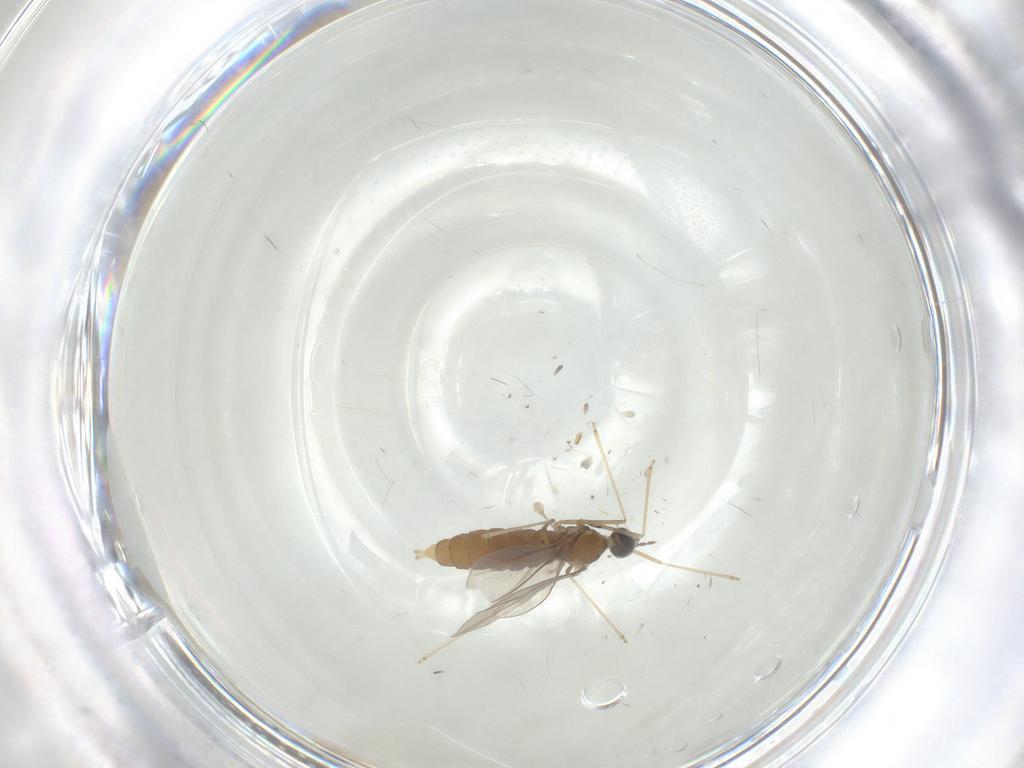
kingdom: Animalia
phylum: Arthropoda
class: Insecta
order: Diptera
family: Cecidomyiidae
